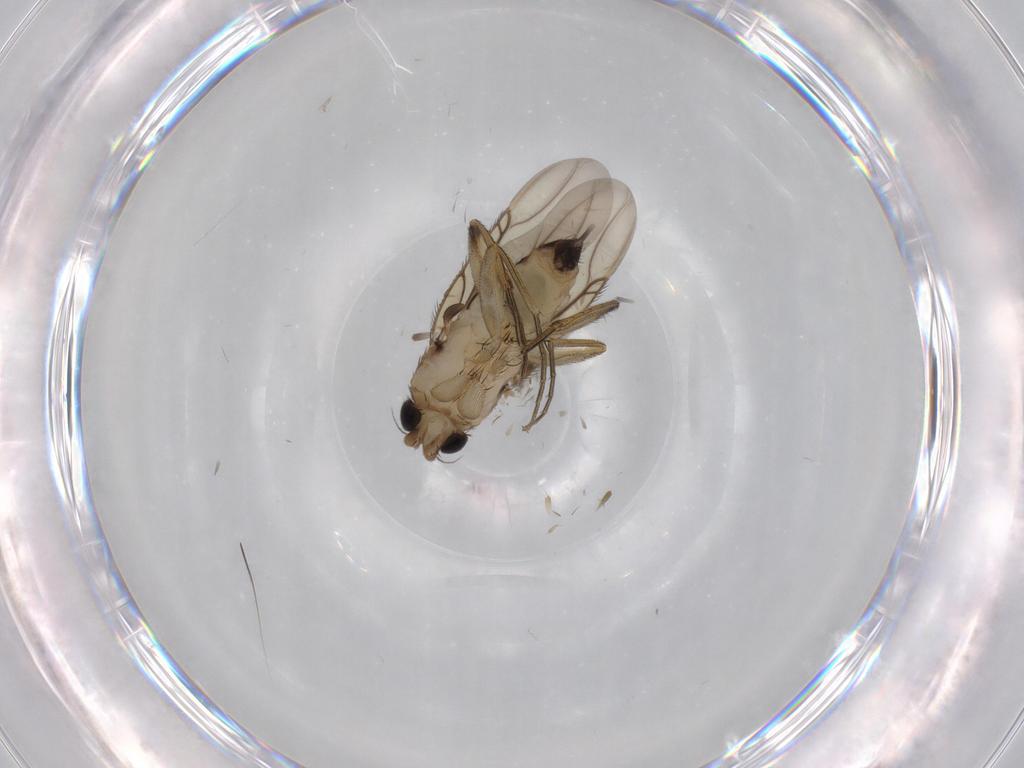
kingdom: Animalia
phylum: Arthropoda
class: Insecta
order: Diptera
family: Phoridae
